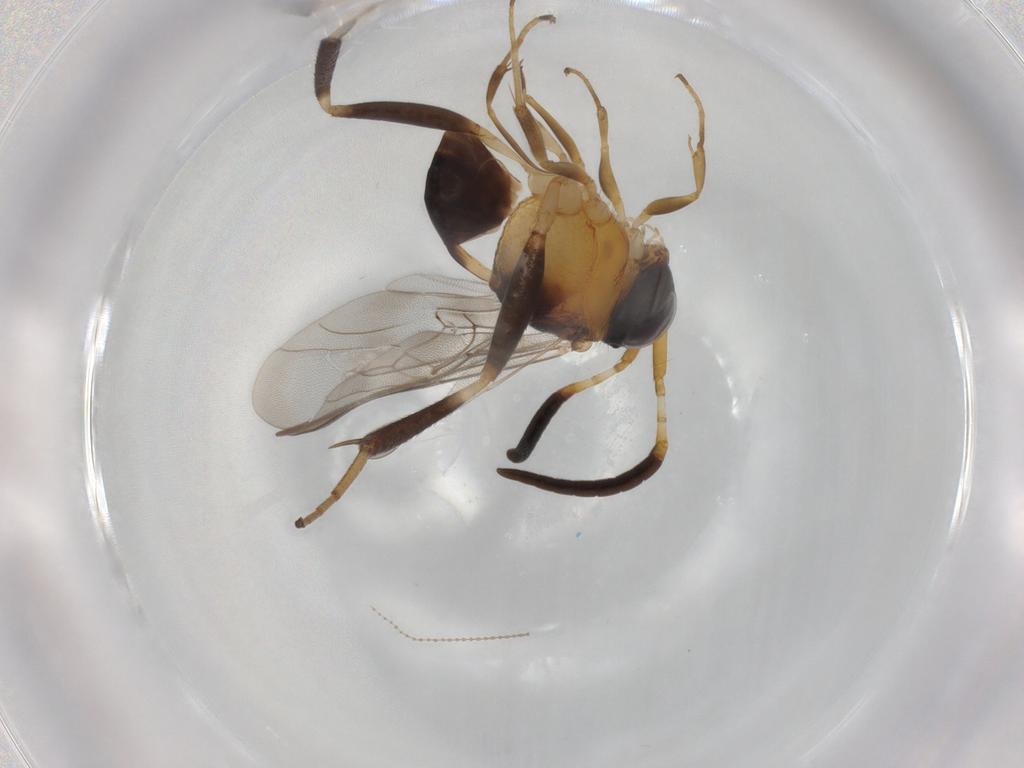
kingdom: Animalia
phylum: Arthropoda
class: Insecta
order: Hymenoptera
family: Evaniidae
